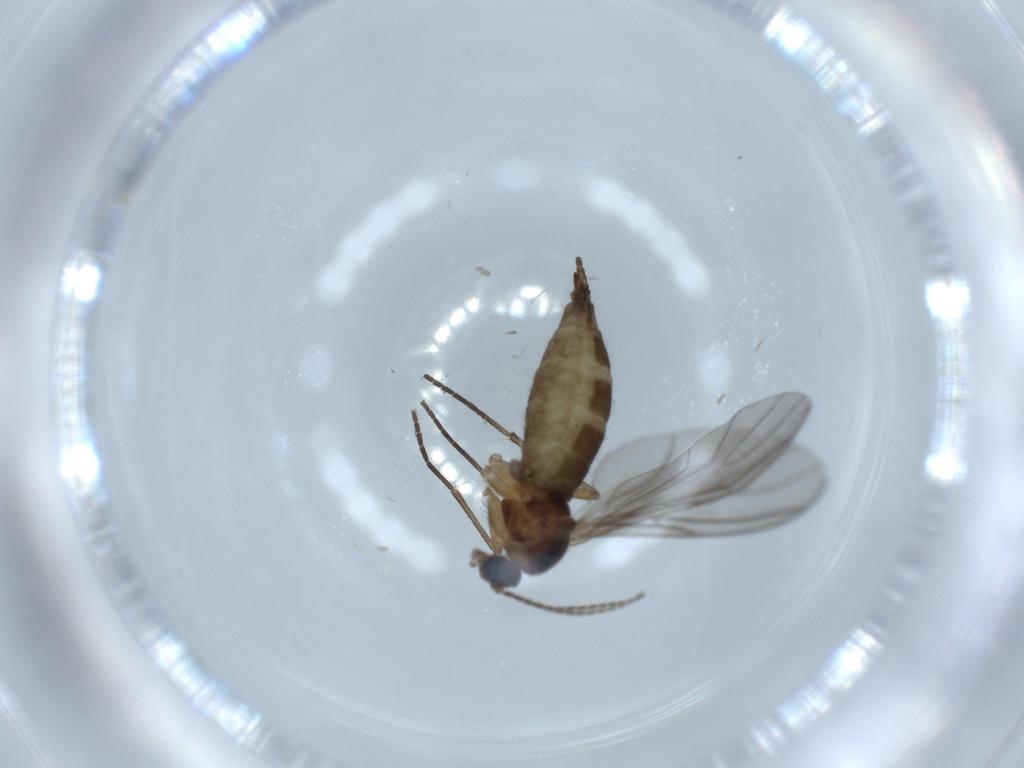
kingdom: Animalia
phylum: Arthropoda
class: Insecta
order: Diptera
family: Sciaridae
